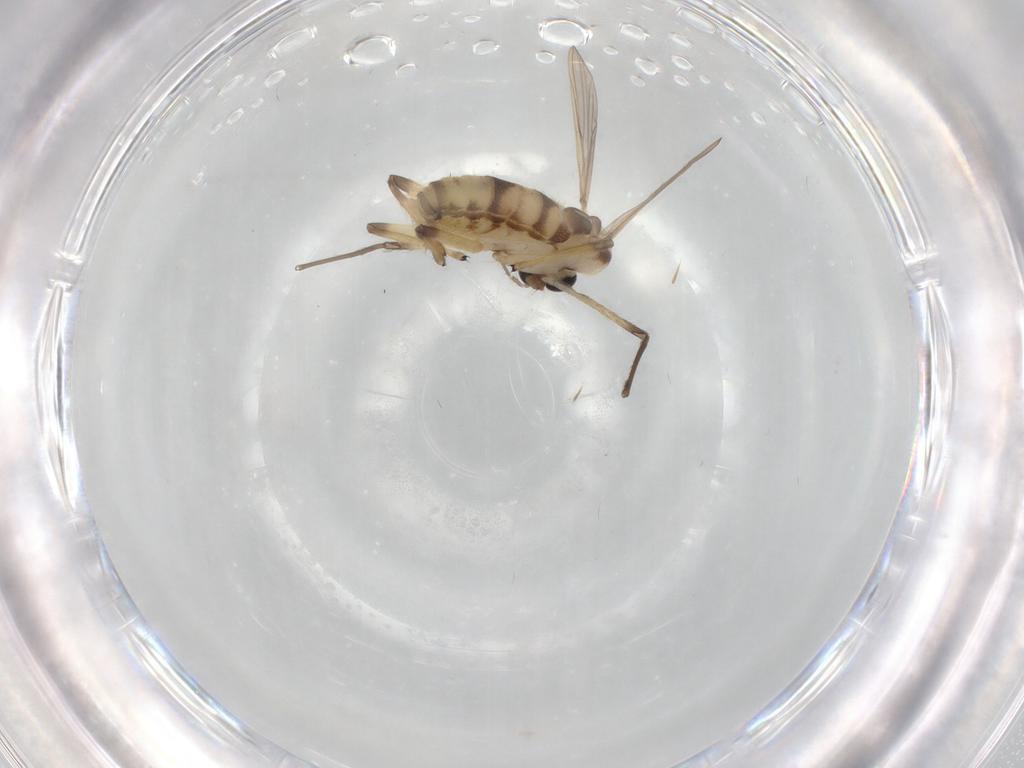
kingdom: Animalia
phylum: Arthropoda
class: Insecta
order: Diptera
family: Chironomidae
